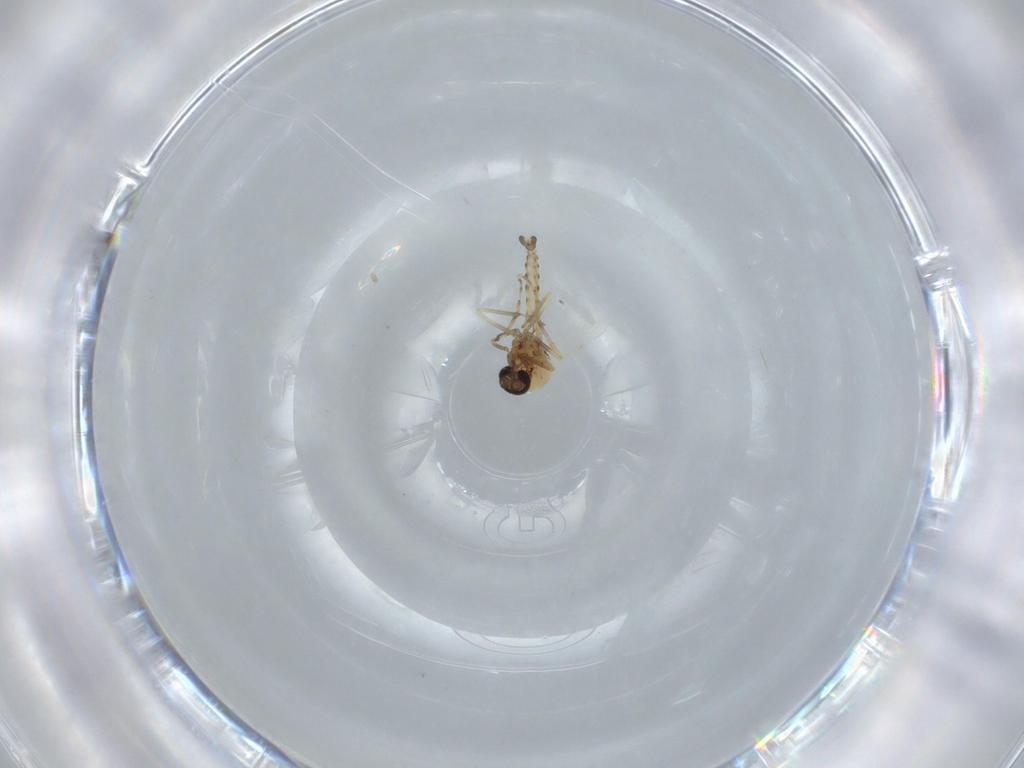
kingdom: Animalia
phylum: Arthropoda
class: Insecta
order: Diptera
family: Cecidomyiidae
